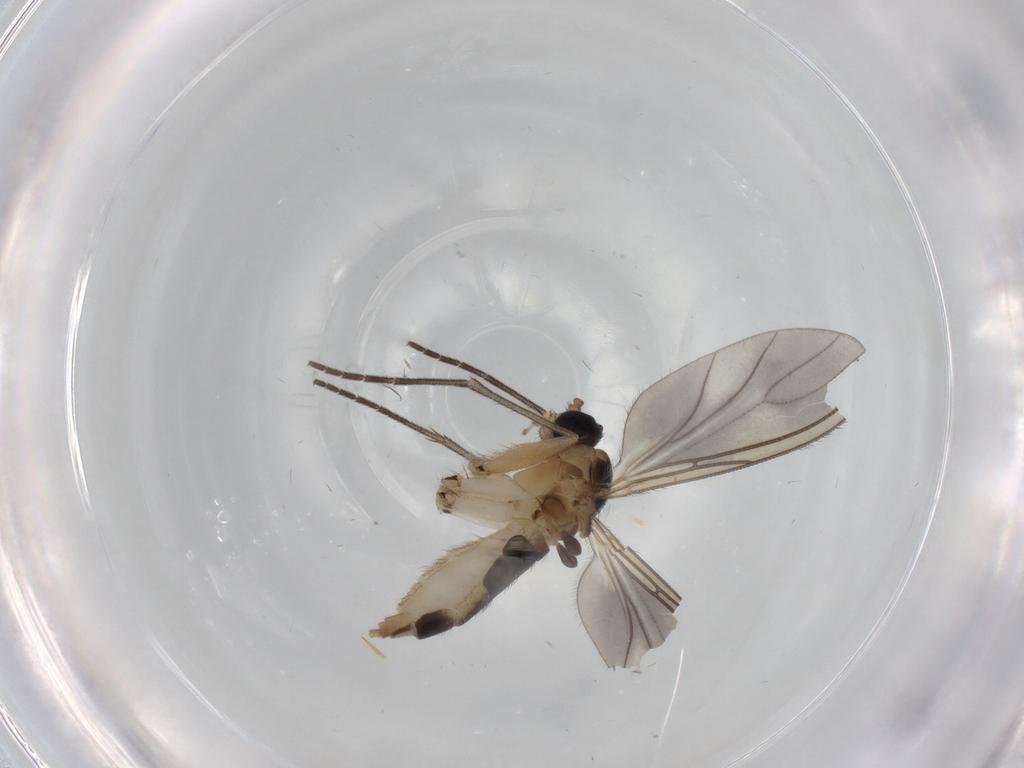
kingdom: Animalia
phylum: Arthropoda
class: Insecta
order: Diptera
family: Sciaridae
